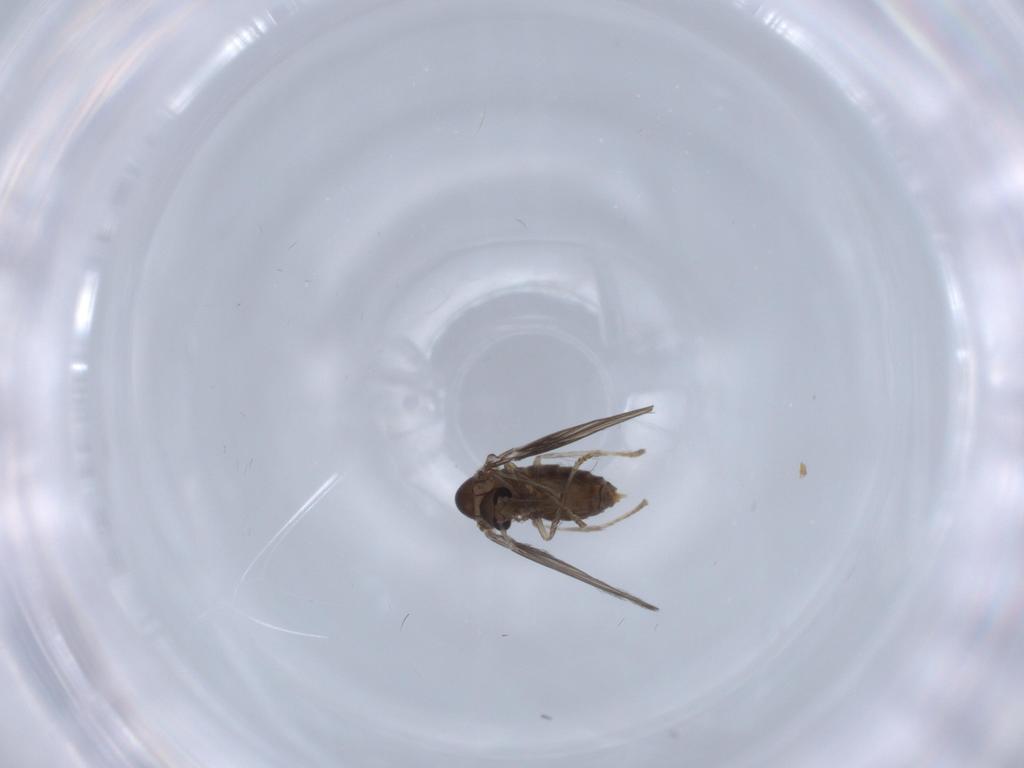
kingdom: Animalia
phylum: Arthropoda
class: Insecta
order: Diptera
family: Psychodidae
